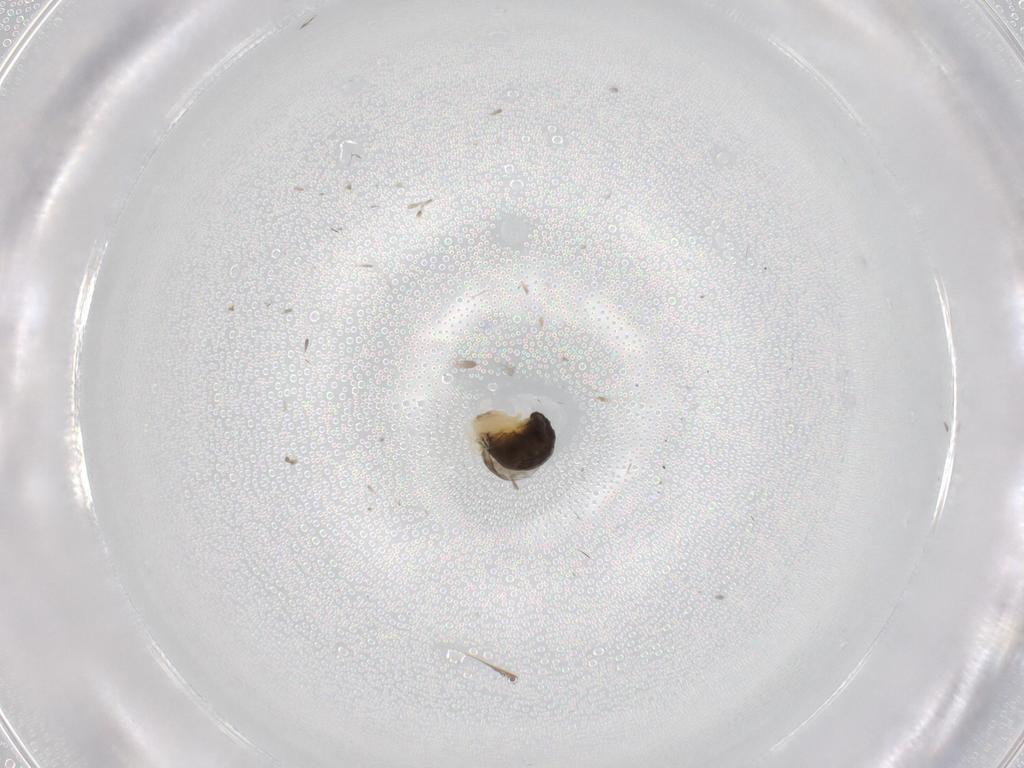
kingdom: Animalia
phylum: Arthropoda
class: Insecta
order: Hymenoptera
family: Dryinidae
